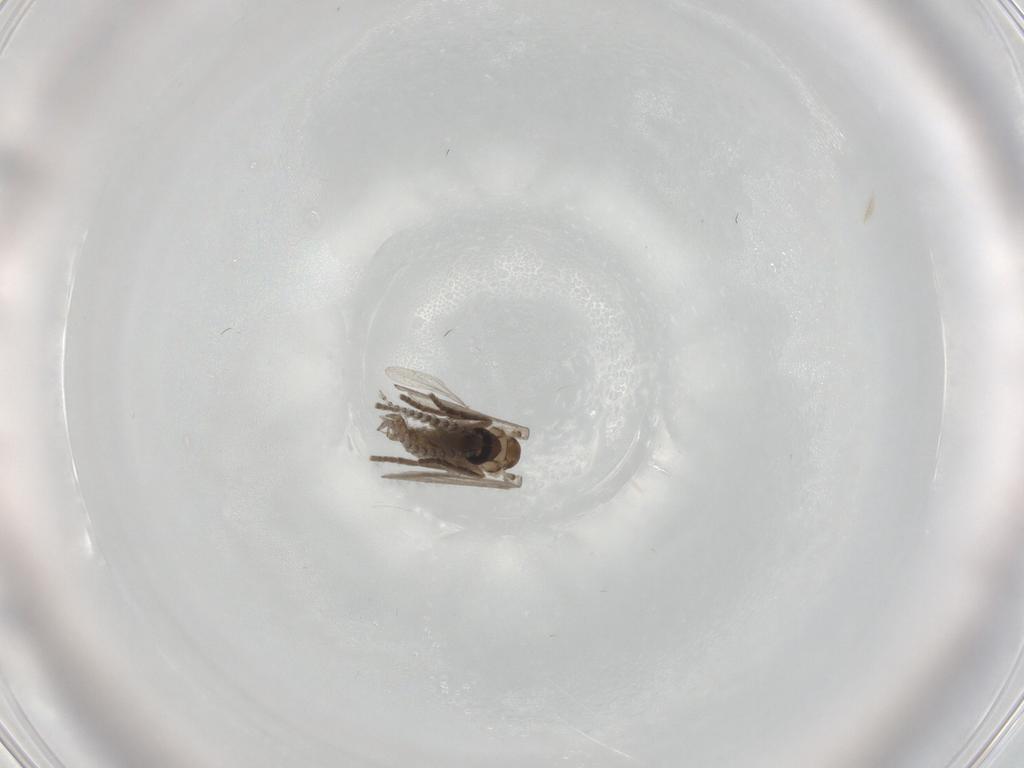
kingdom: Animalia
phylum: Arthropoda
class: Insecta
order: Diptera
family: Psychodidae
